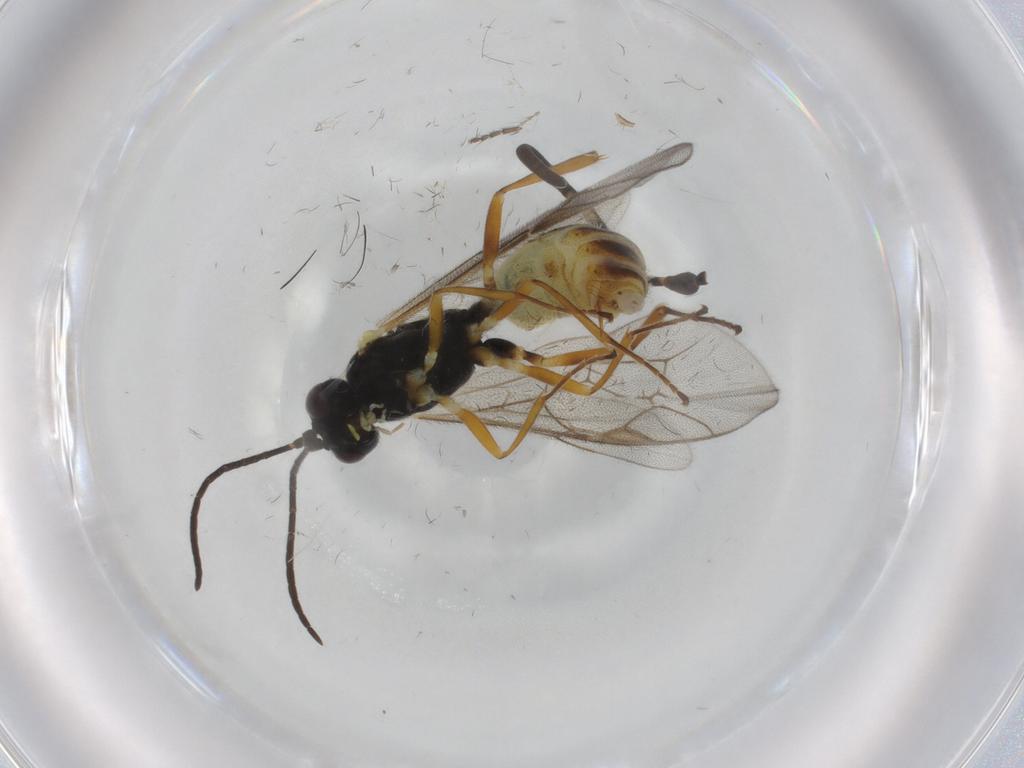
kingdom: Animalia
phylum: Arthropoda
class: Insecta
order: Hymenoptera
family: Ichneumonidae
